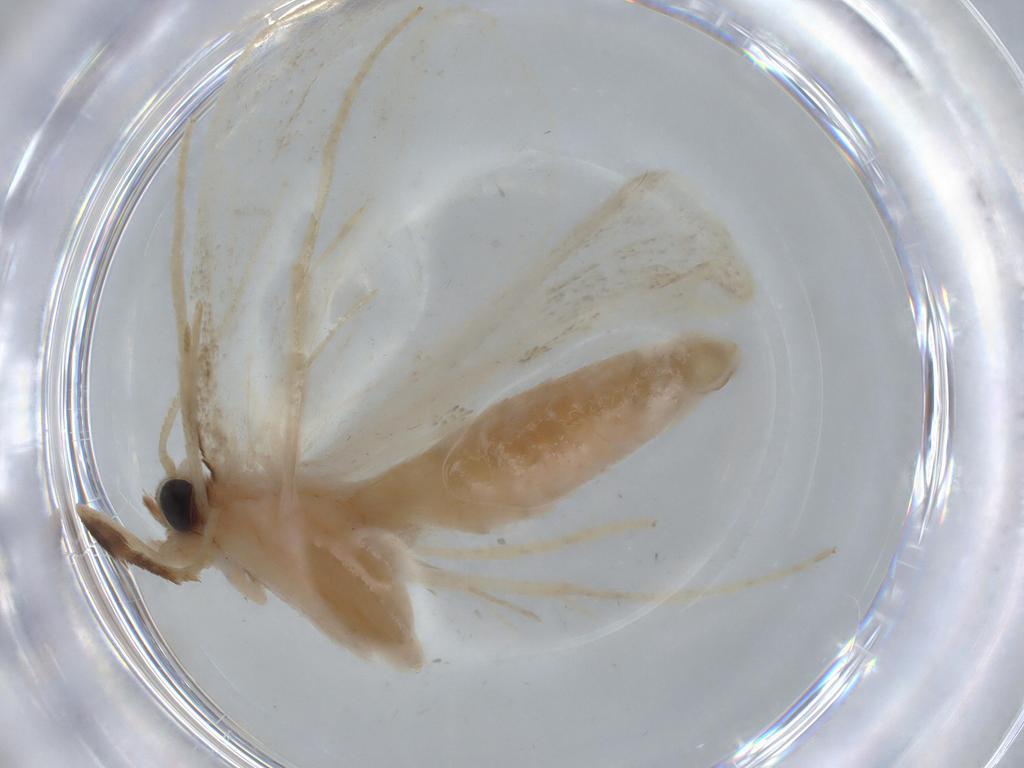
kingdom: Animalia
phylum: Arthropoda
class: Insecta
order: Lepidoptera
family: Crambidae
